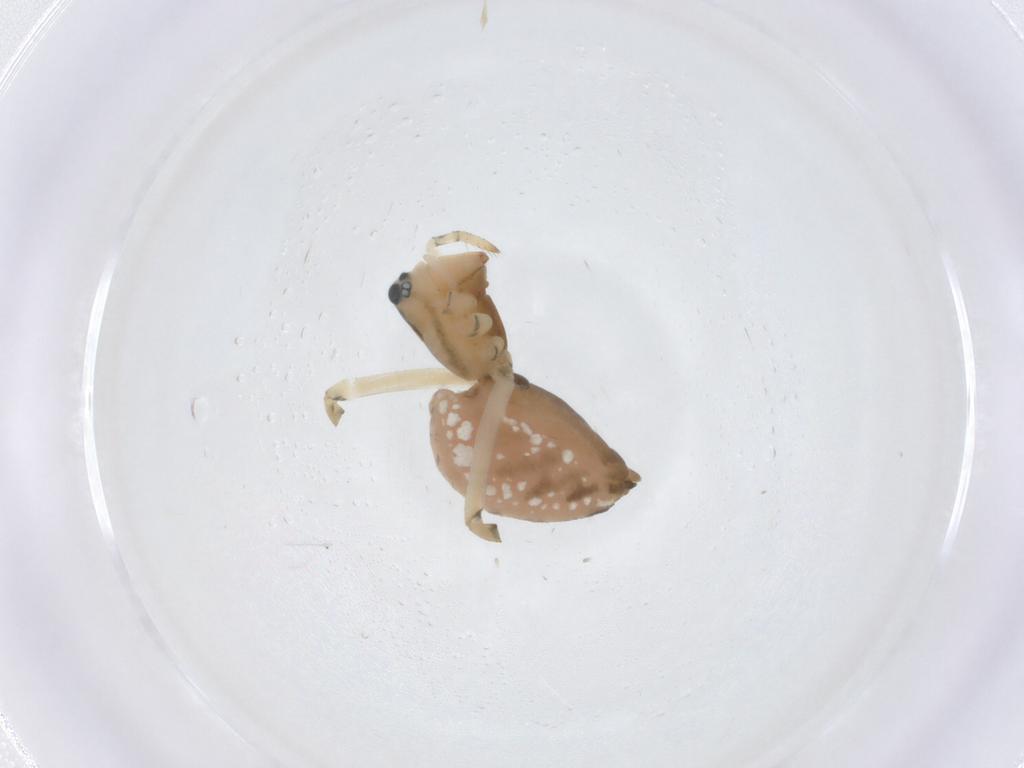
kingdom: Animalia
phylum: Arthropoda
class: Arachnida
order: Araneae
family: Linyphiidae
